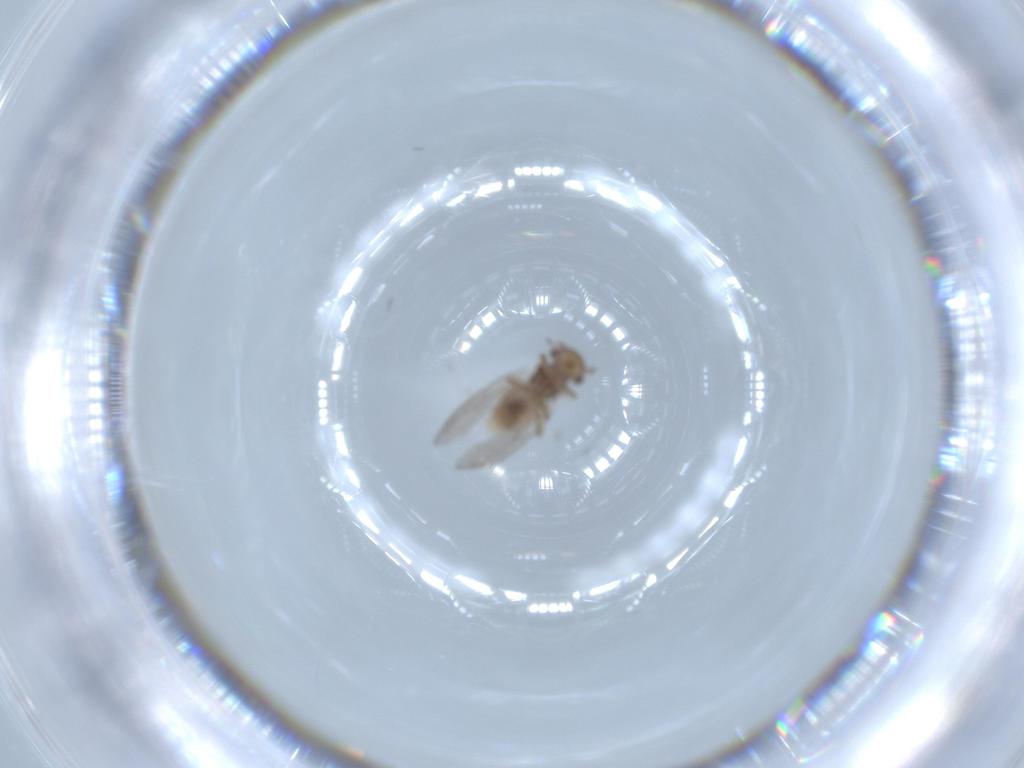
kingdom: Animalia
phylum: Arthropoda
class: Insecta
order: Psocodea
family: Peripsocidae
